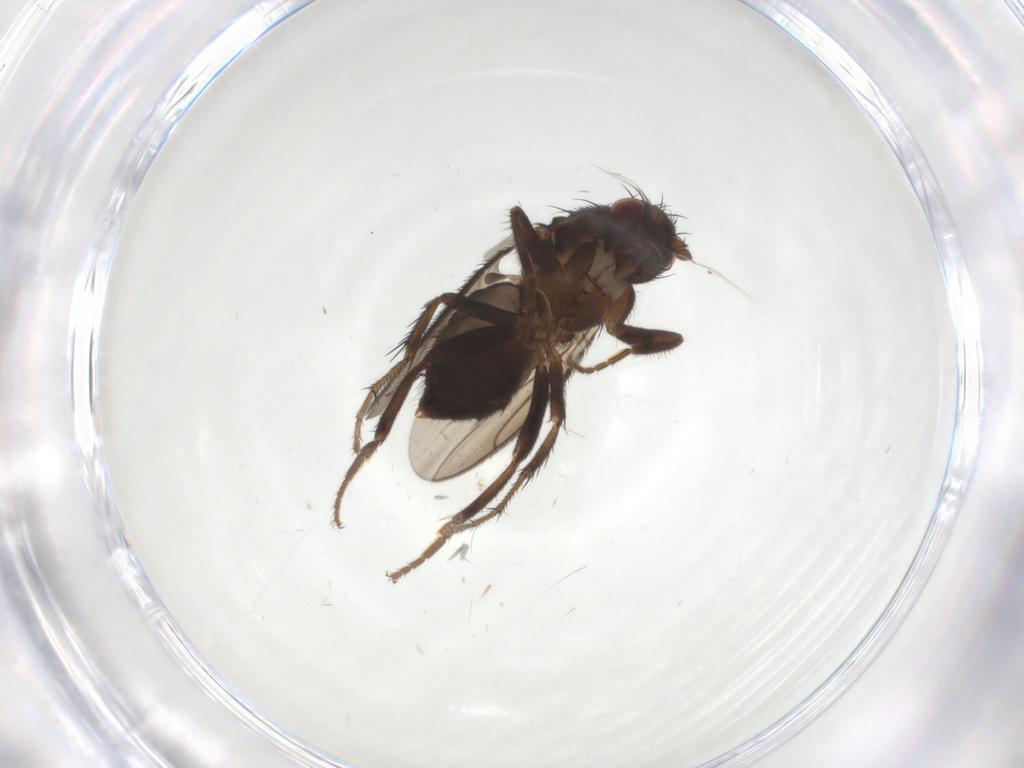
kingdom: Animalia
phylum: Arthropoda
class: Insecta
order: Diptera
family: Sphaeroceridae
